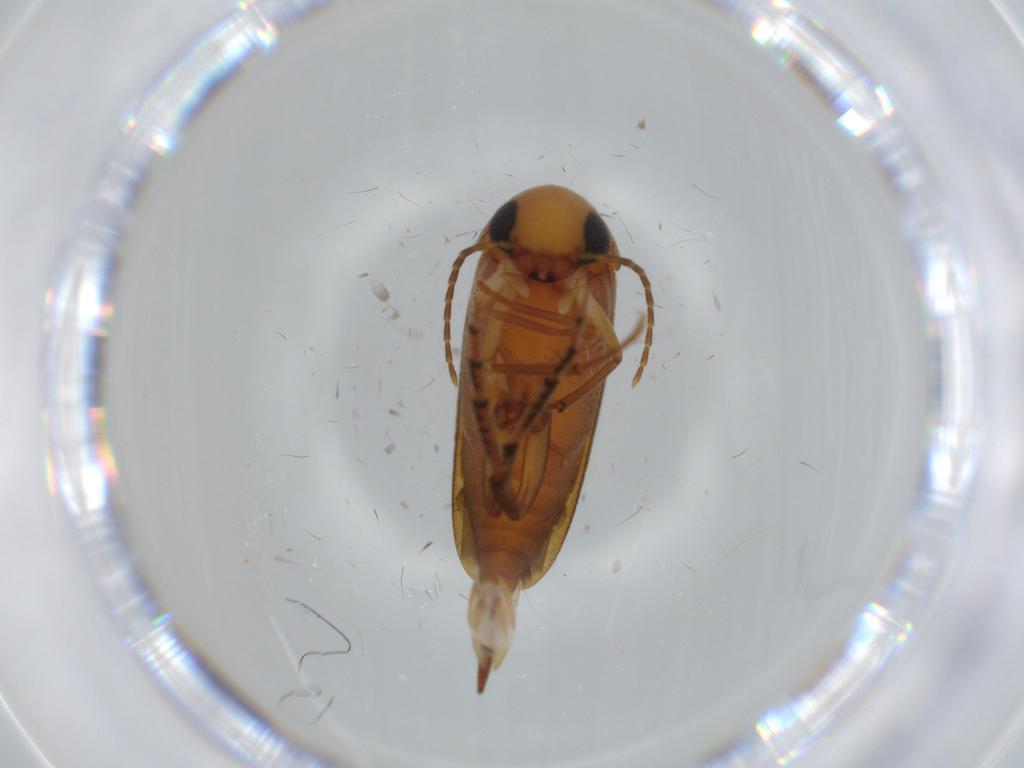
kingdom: Animalia
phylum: Arthropoda
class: Insecta
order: Coleoptera
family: Mordellidae
